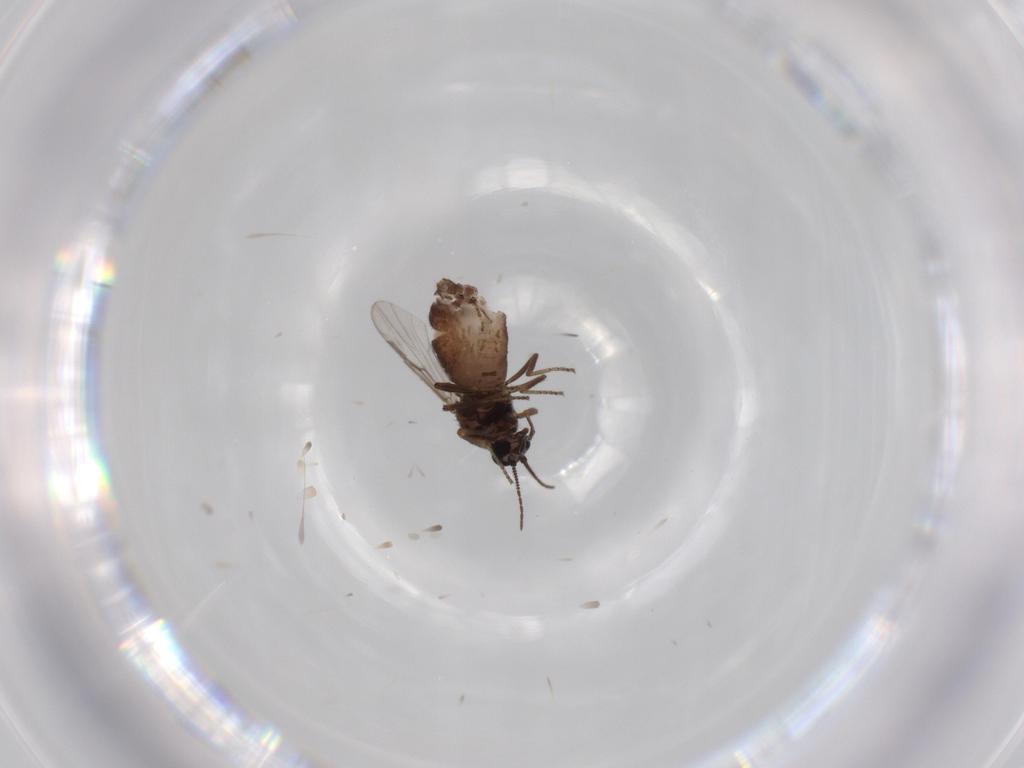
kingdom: Animalia
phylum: Arthropoda
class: Insecta
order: Diptera
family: Ceratopogonidae
